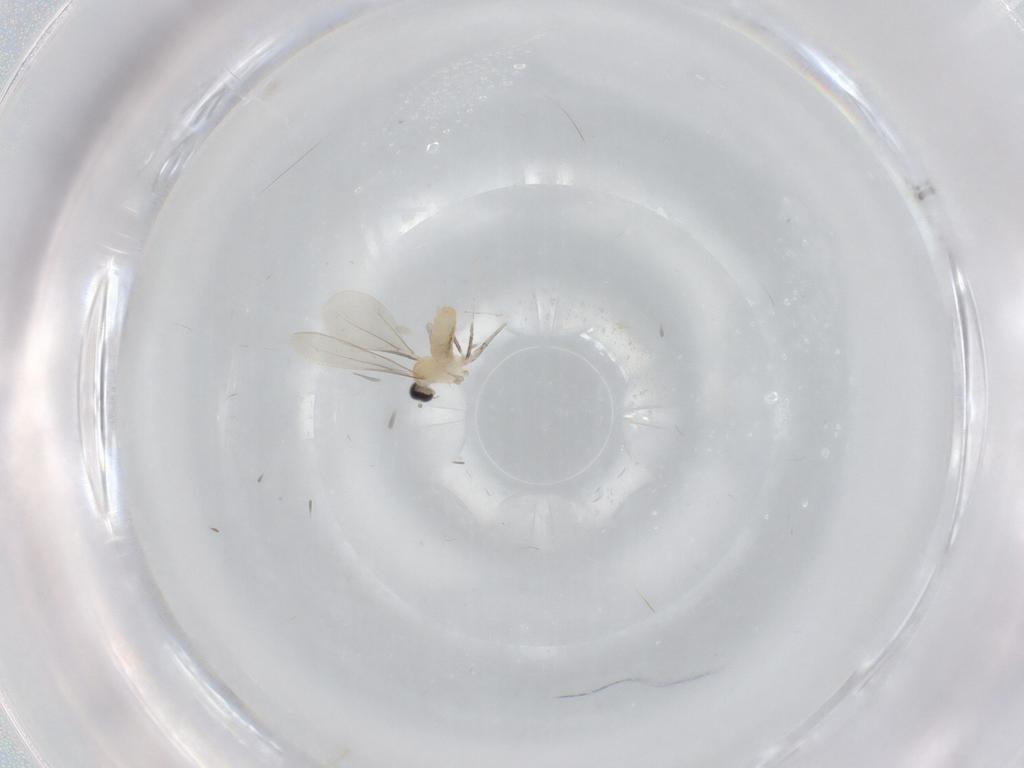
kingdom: Animalia
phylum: Arthropoda
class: Insecta
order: Diptera
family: Cecidomyiidae
